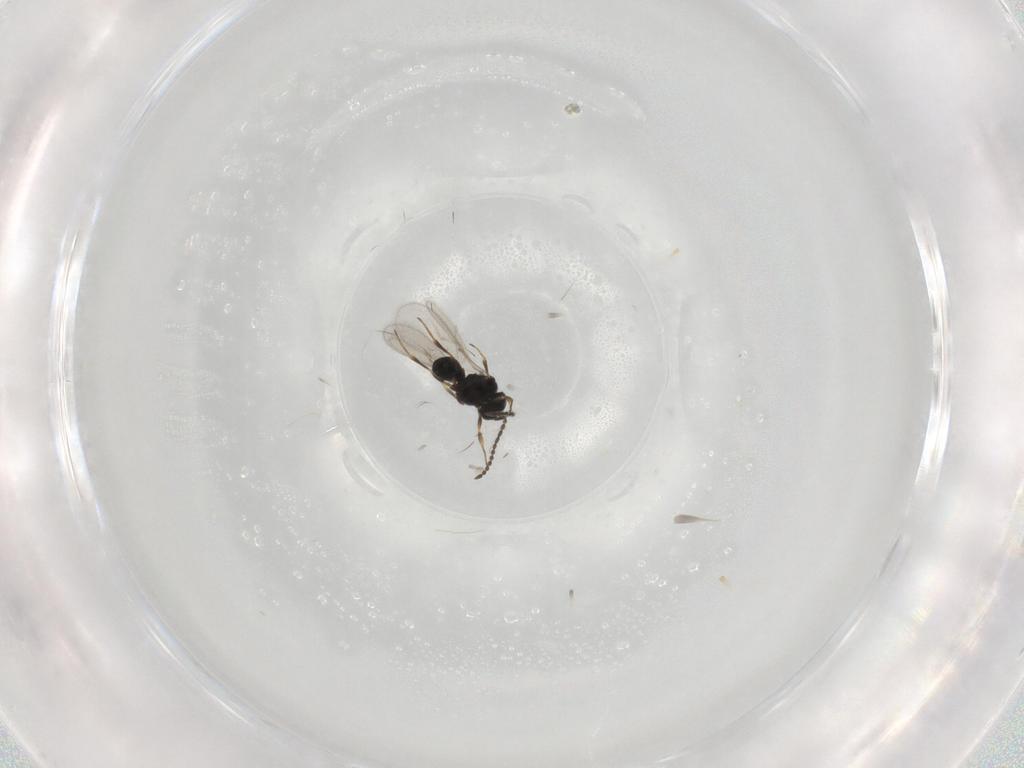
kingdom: Animalia
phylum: Arthropoda
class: Insecta
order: Hymenoptera
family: Scelionidae
